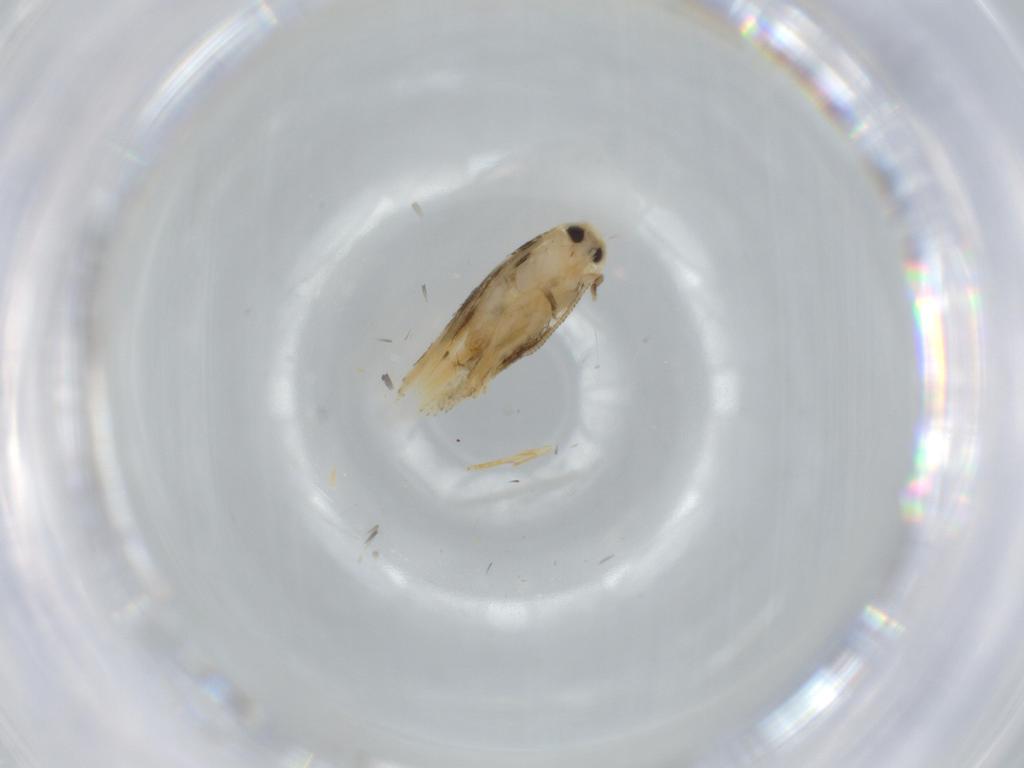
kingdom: Animalia
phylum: Arthropoda
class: Insecta
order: Lepidoptera
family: Nepticulidae
